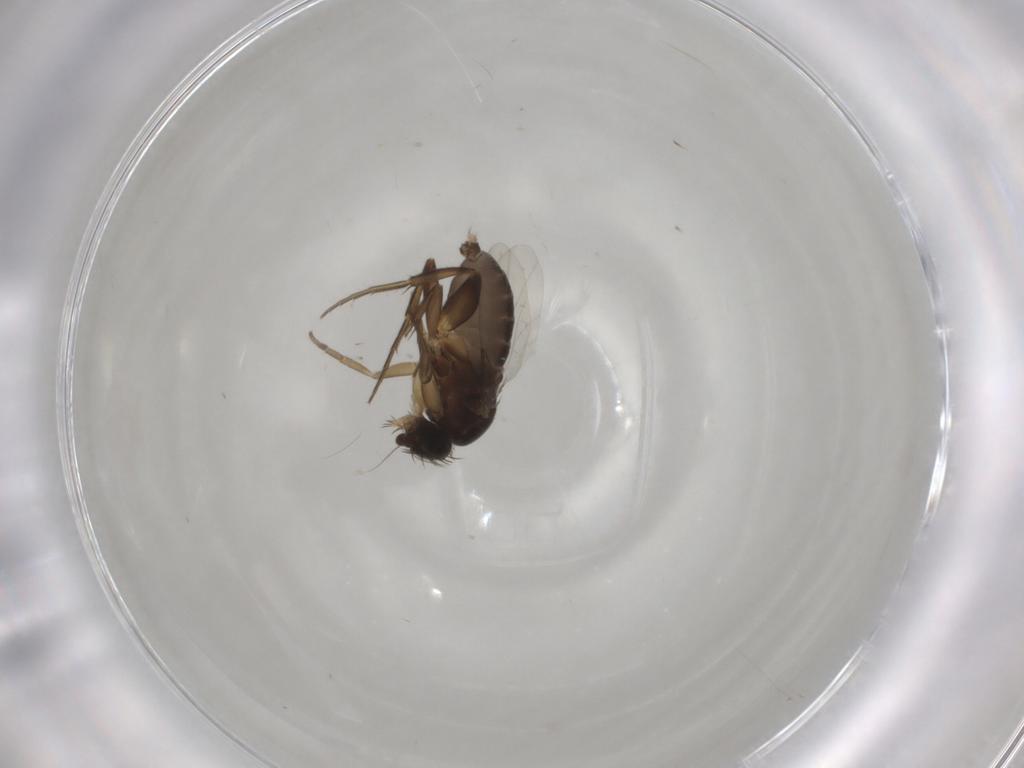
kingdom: Animalia
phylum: Arthropoda
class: Insecta
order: Diptera
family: Phoridae
